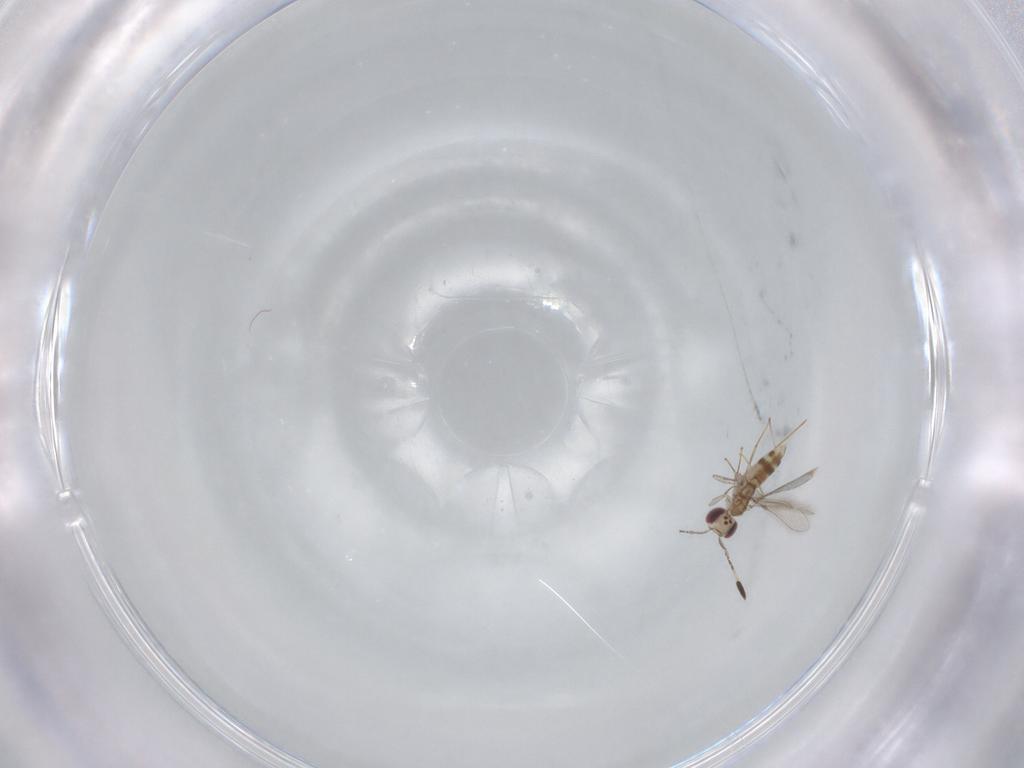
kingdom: Animalia
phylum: Arthropoda
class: Insecta
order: Hymenoptera
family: Mymaridae
